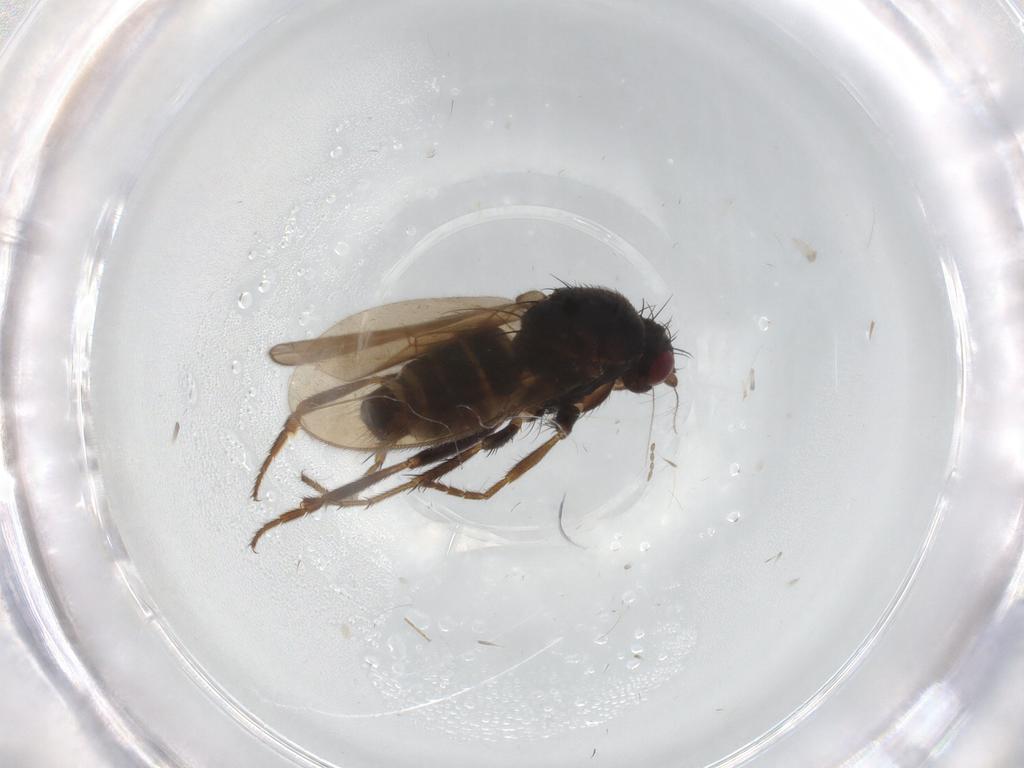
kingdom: Animalia
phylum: Arthropoda
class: Insecta
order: Diptera
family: Sphaeroceridae
